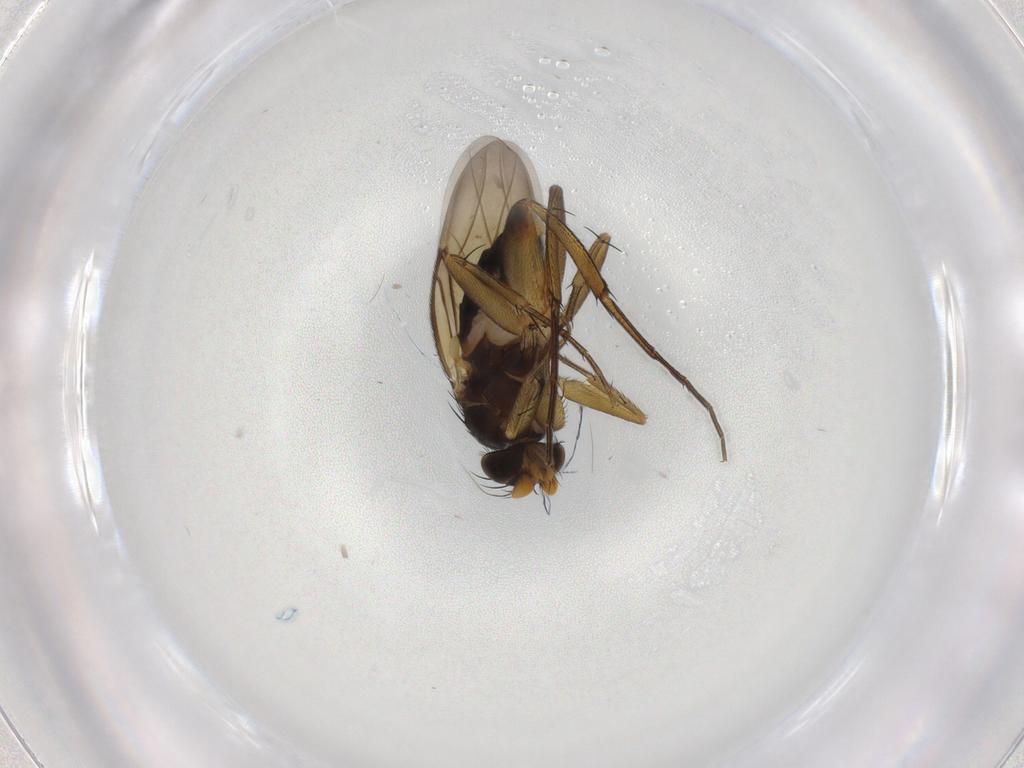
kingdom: Animalia
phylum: Arthropoda
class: Insecta
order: Diptera
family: Phoridae
